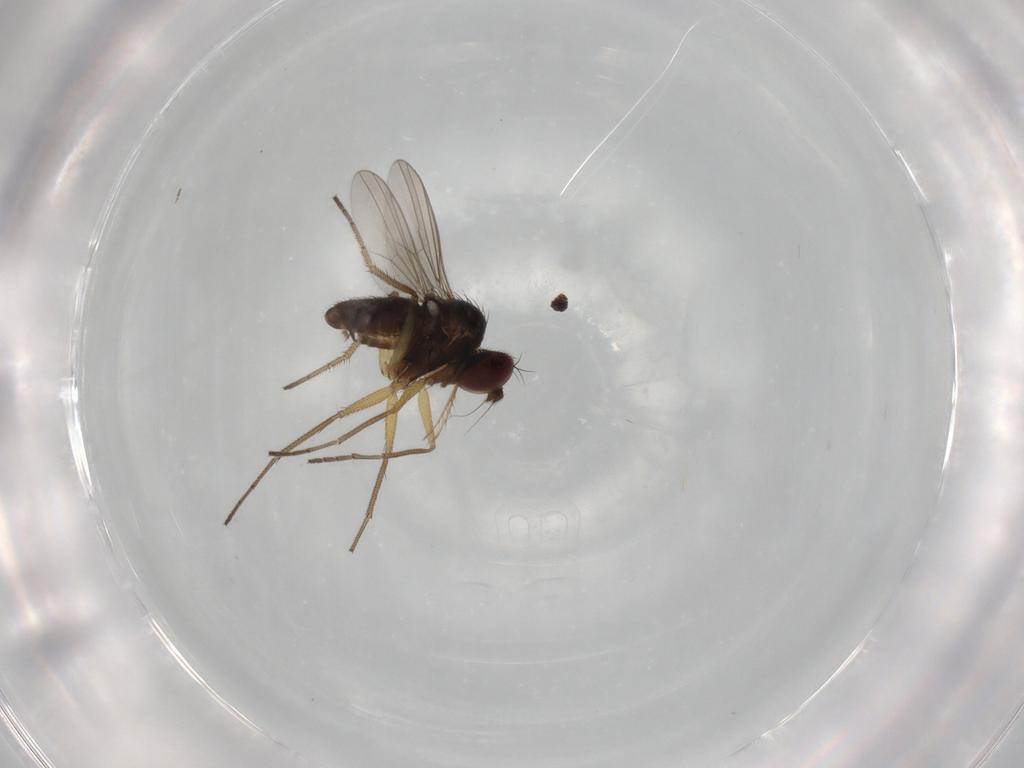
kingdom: Animalia
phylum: Arthropoda
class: Insecta
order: Diptera
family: Dolichopodidae
